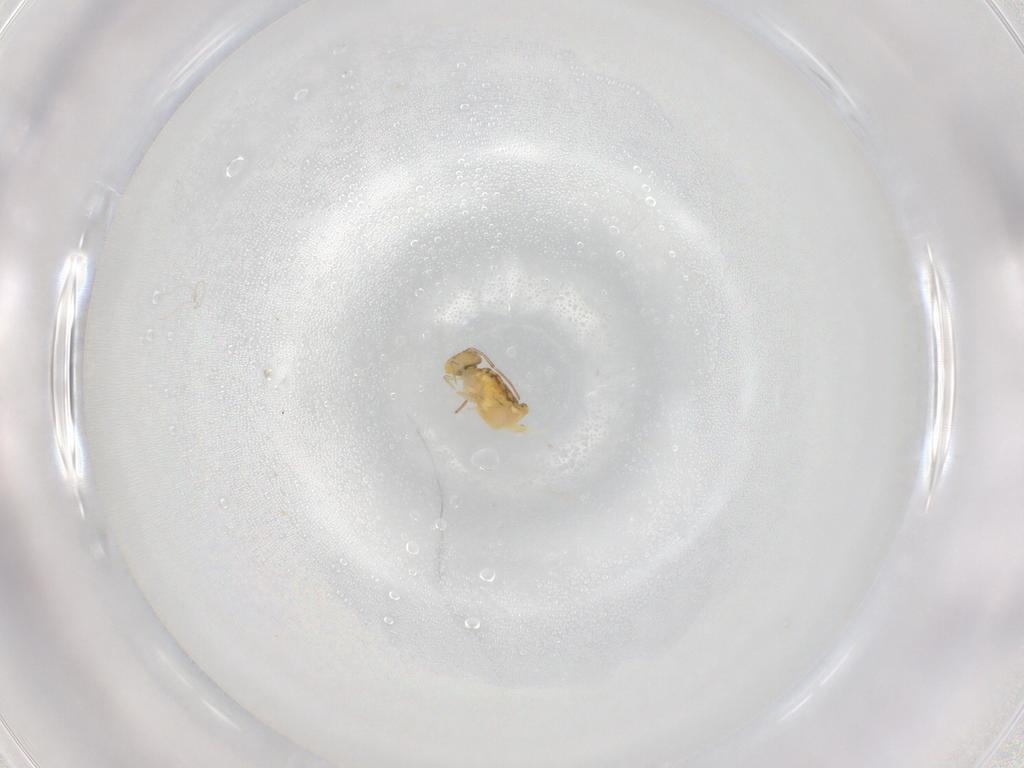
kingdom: Animalia
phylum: Arthropoda
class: Collembola
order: Symphypleona
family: Bourletiellidae
